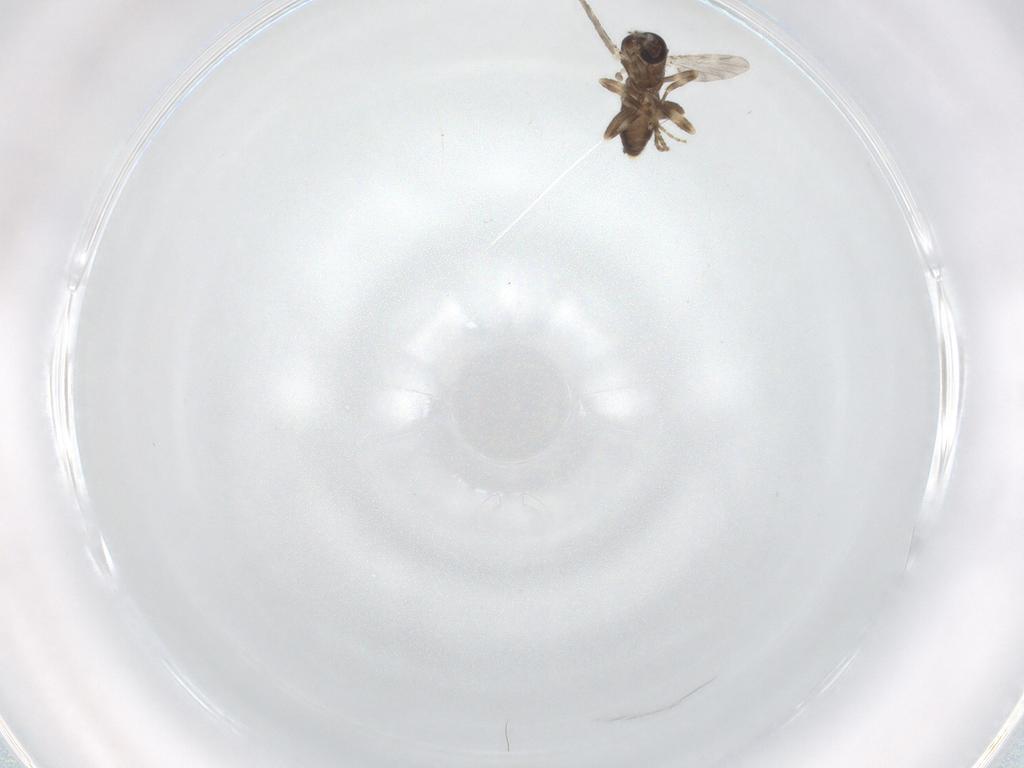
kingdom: Animalia
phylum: Arthropoda
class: Insecta
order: Diptera
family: Ceratopogonidae
